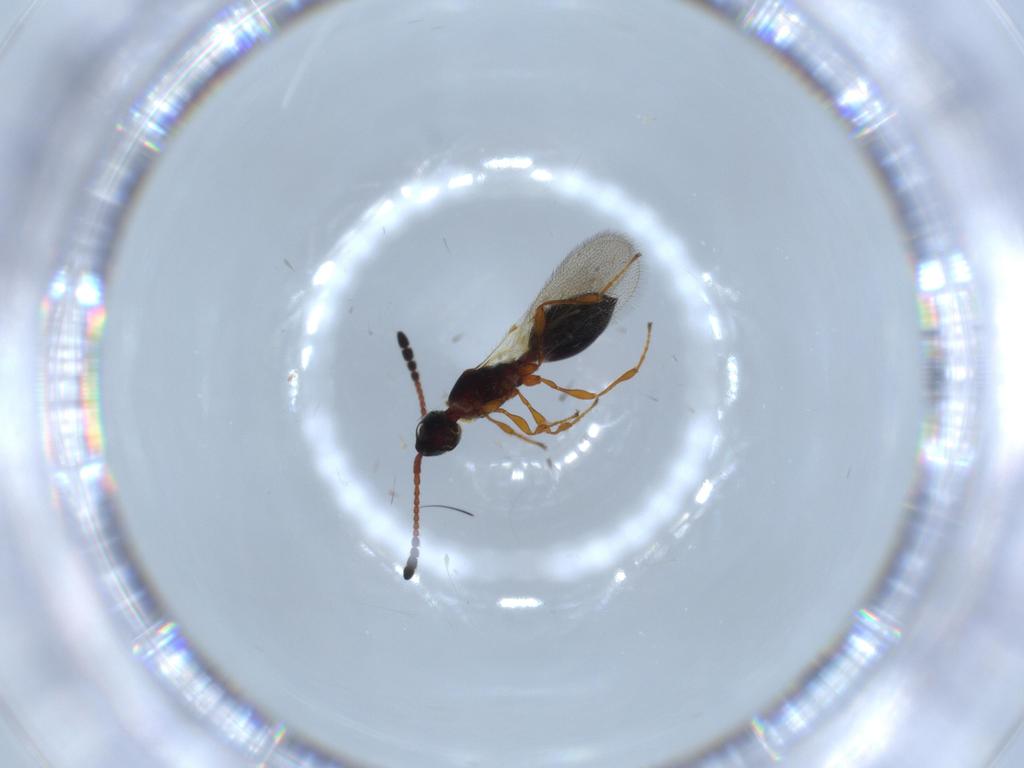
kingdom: Animalia
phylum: Arthropoda
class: Insecta
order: Hymenoptera
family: Diapriidae
